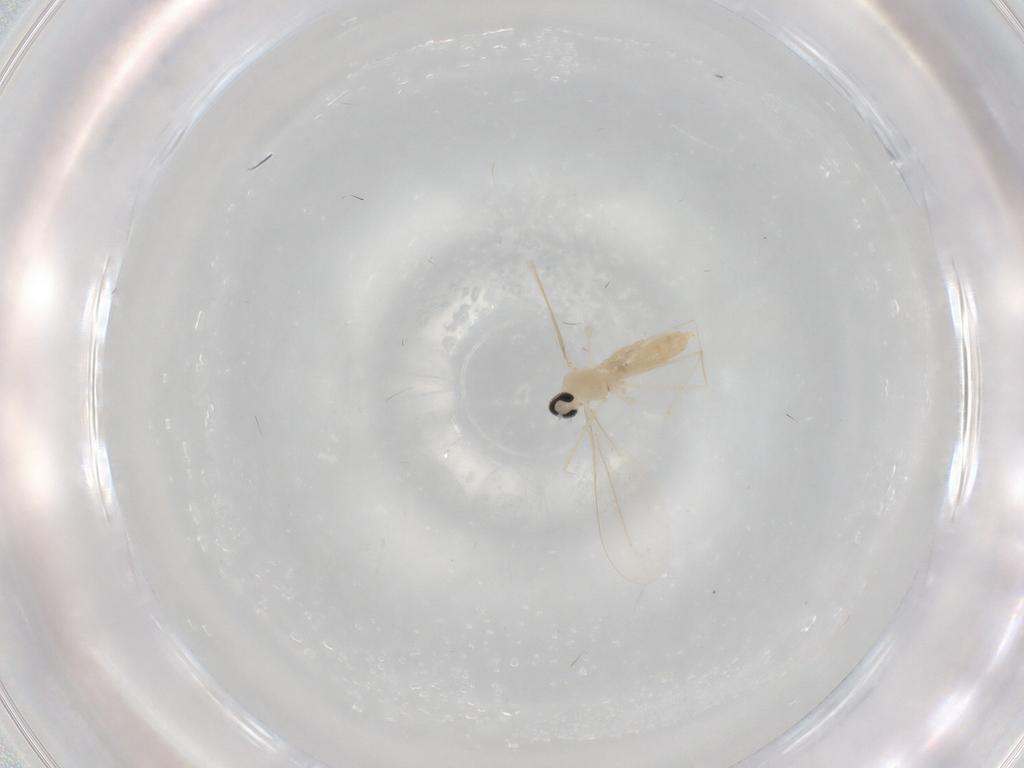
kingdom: Animalia
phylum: Arthropoda
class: Insecta
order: Diptera
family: Cecidomyiidae
